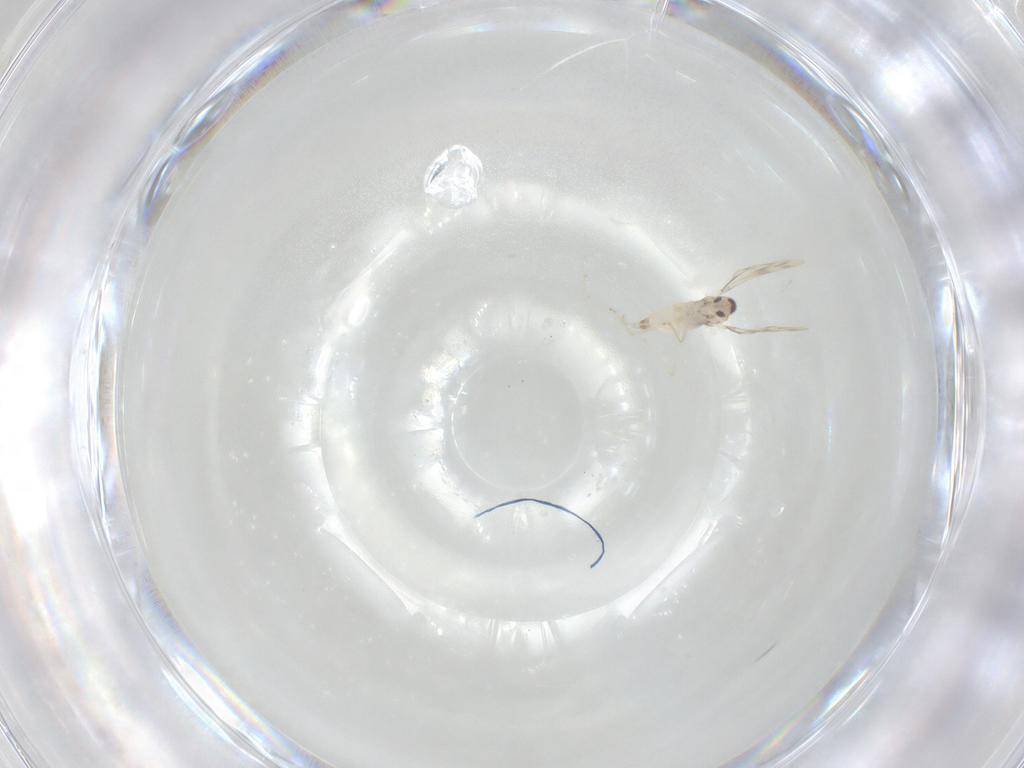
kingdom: Animalia
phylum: Arthropoda
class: Insecta
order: Diptera
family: Cecidomyiidae
